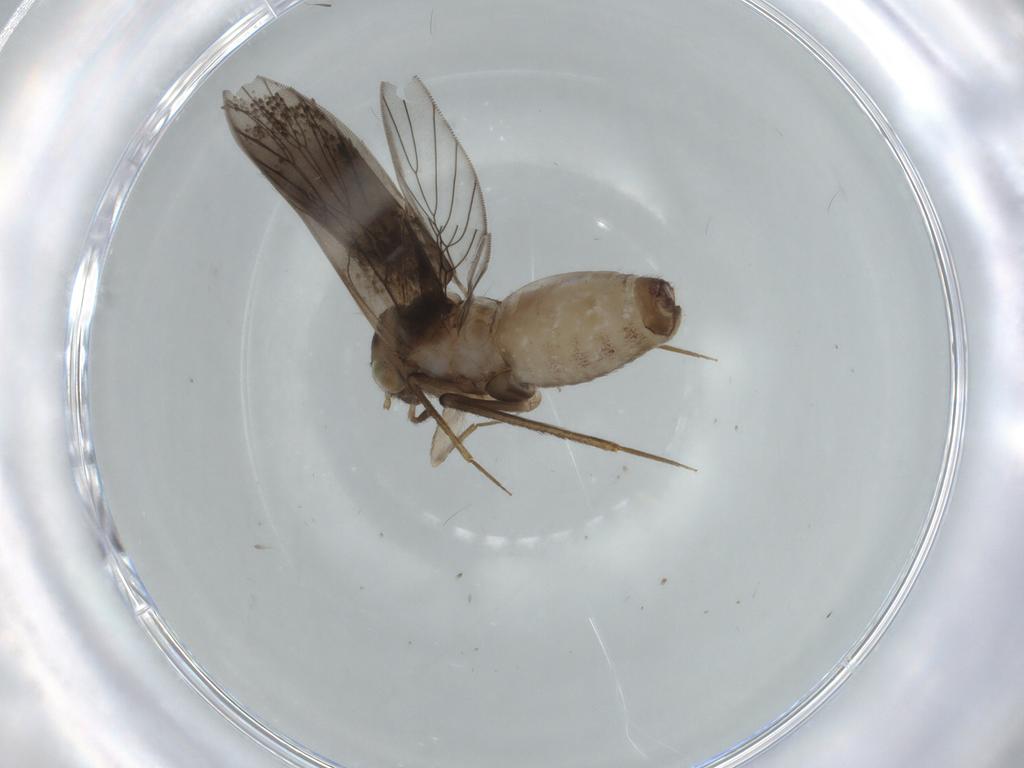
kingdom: Animalia
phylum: Arthropoda
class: Insecta
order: Psocodea
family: Lepidopsocidae
